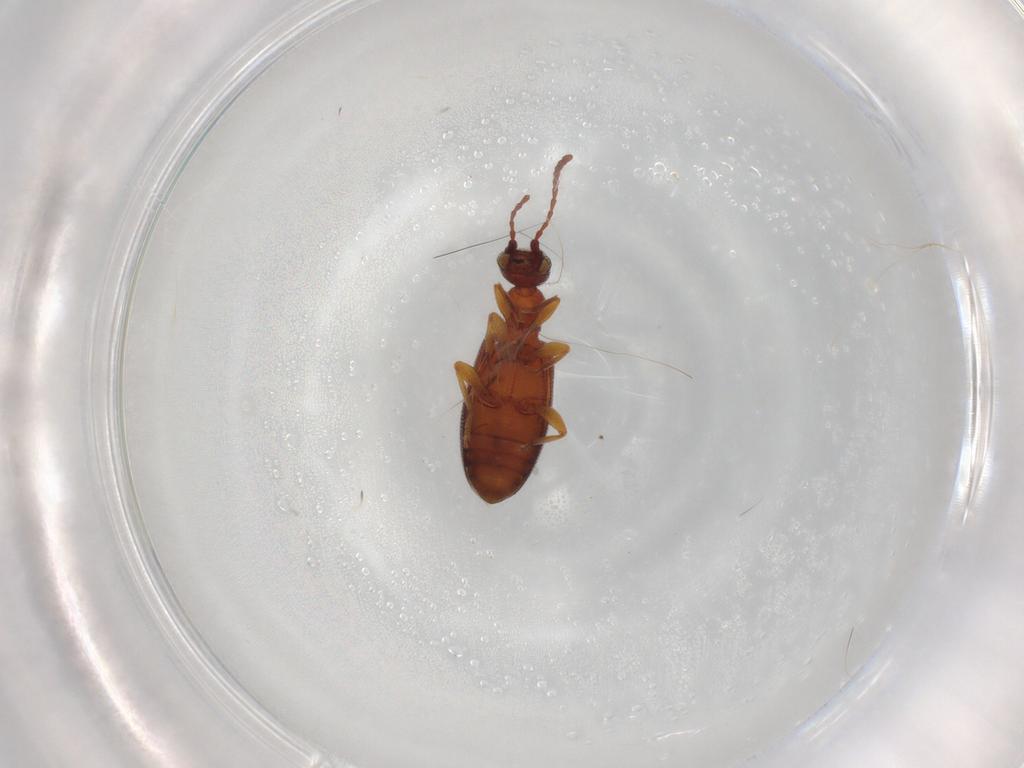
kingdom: Animalia
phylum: Arthropoda
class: Insecta
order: Coleoptera
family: Anthicidae
